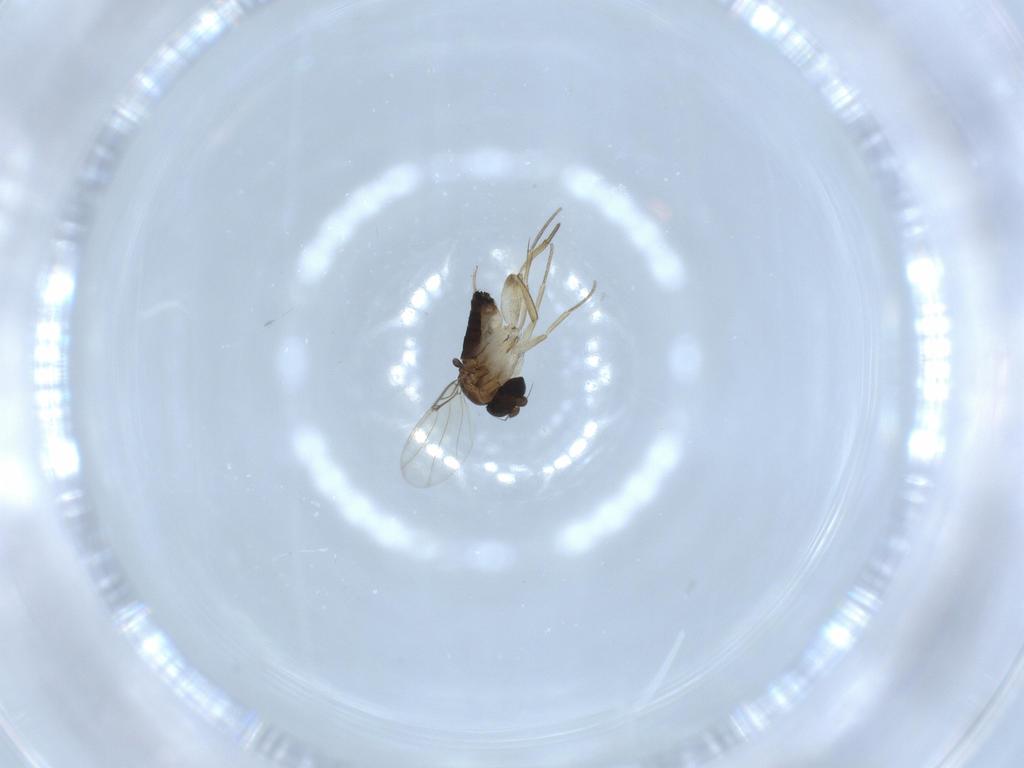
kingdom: Animalia
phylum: Arthropoda
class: Insecta
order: Diptera
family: Phoridae
